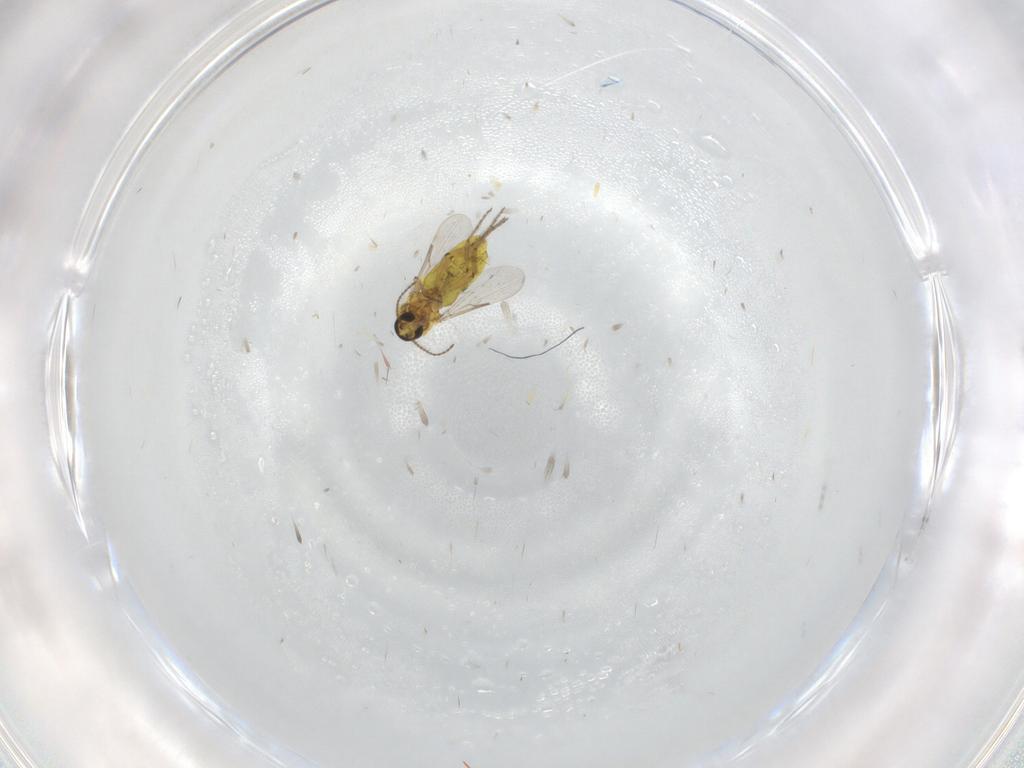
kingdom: Animalia
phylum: Arthropoda
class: Insecta
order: Diptera
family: Ceratopogonidae
